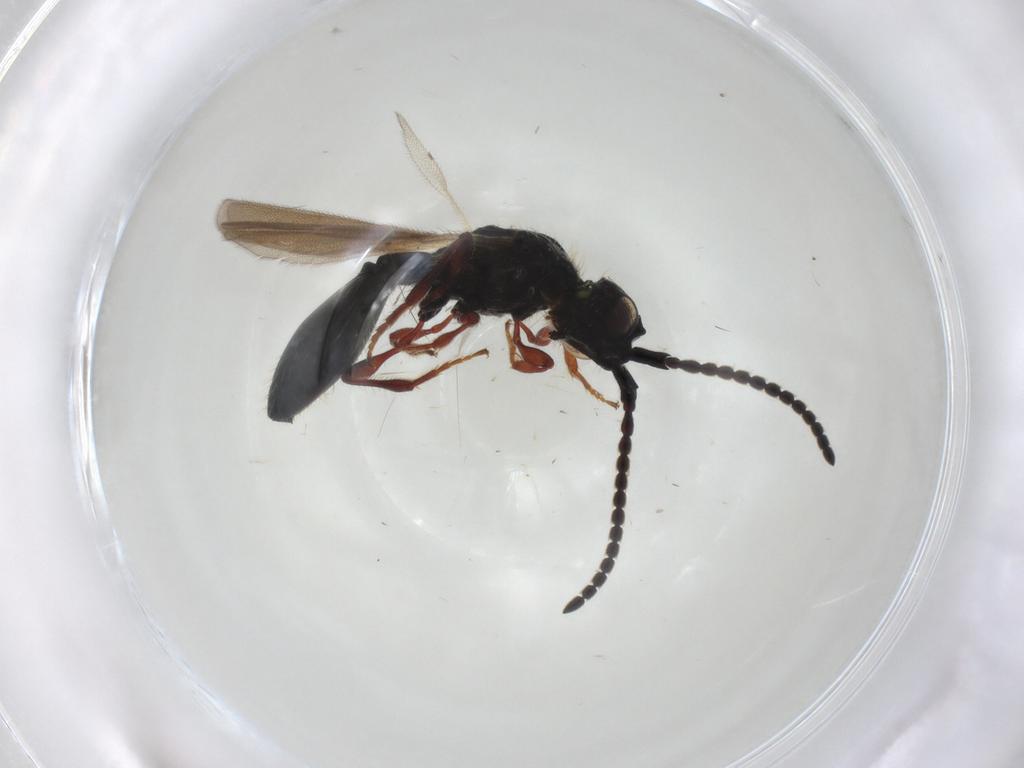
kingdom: Animalia
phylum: Arthropoda
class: Insecta
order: Hymenoptera
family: Diapriidae
